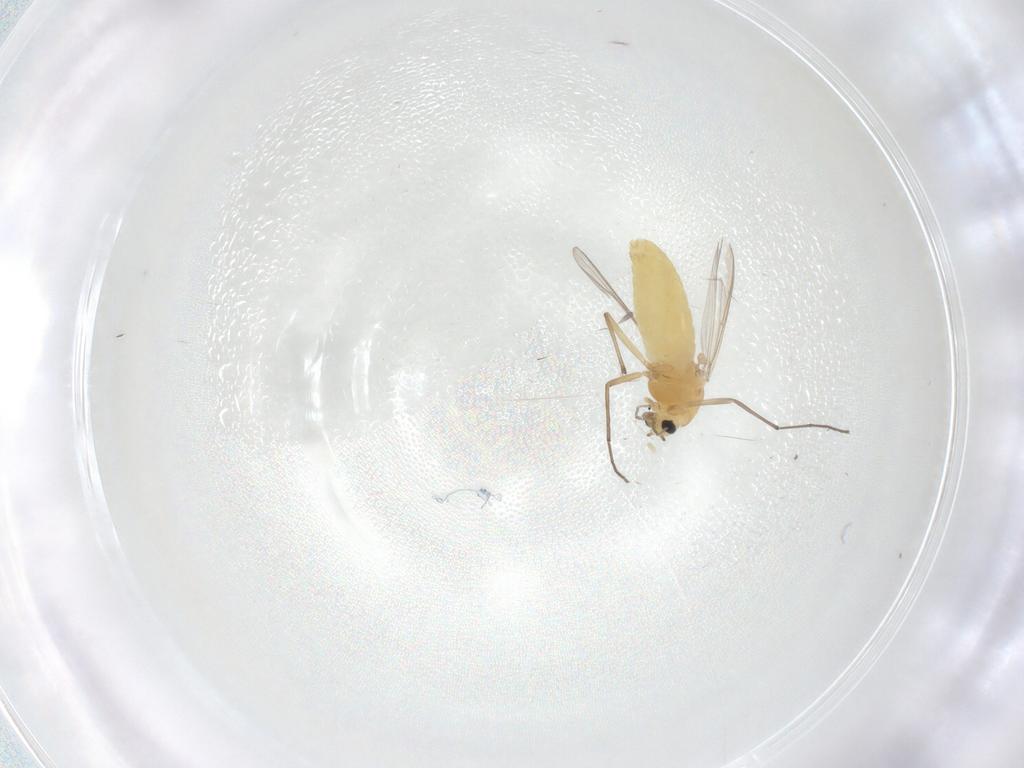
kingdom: Animalia
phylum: Arthropoda
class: Insecta
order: Diptera
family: Chironomidae
